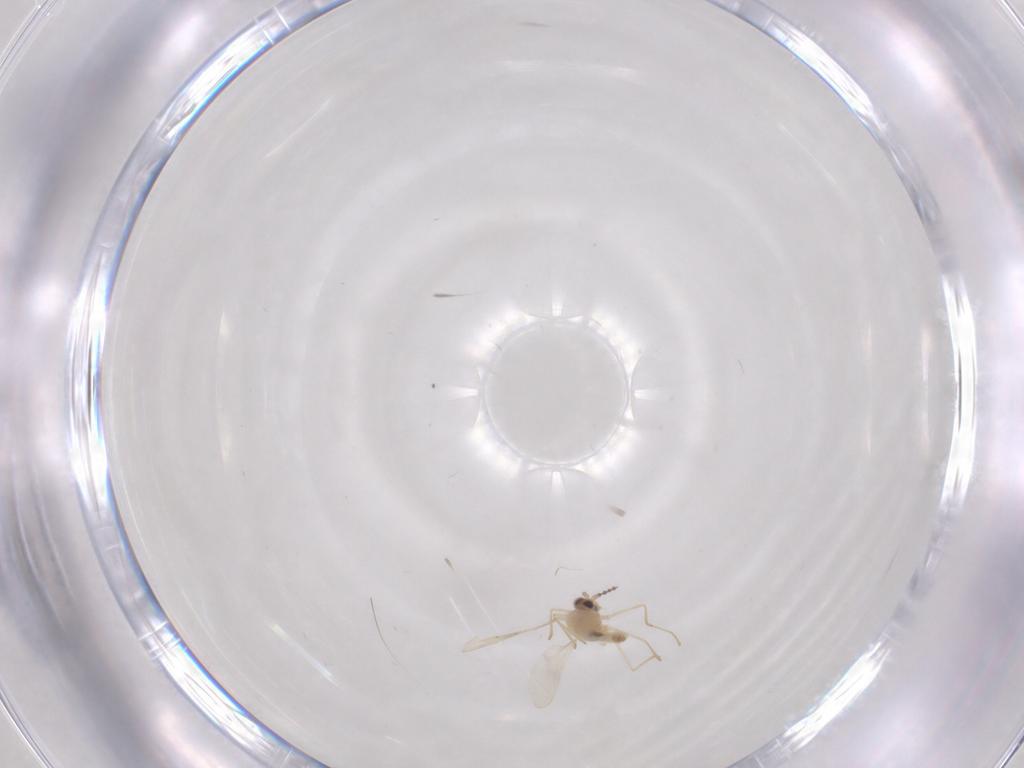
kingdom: Animalia
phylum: Arthropoda
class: Insecta
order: Diptera
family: Cecidomyiidae
